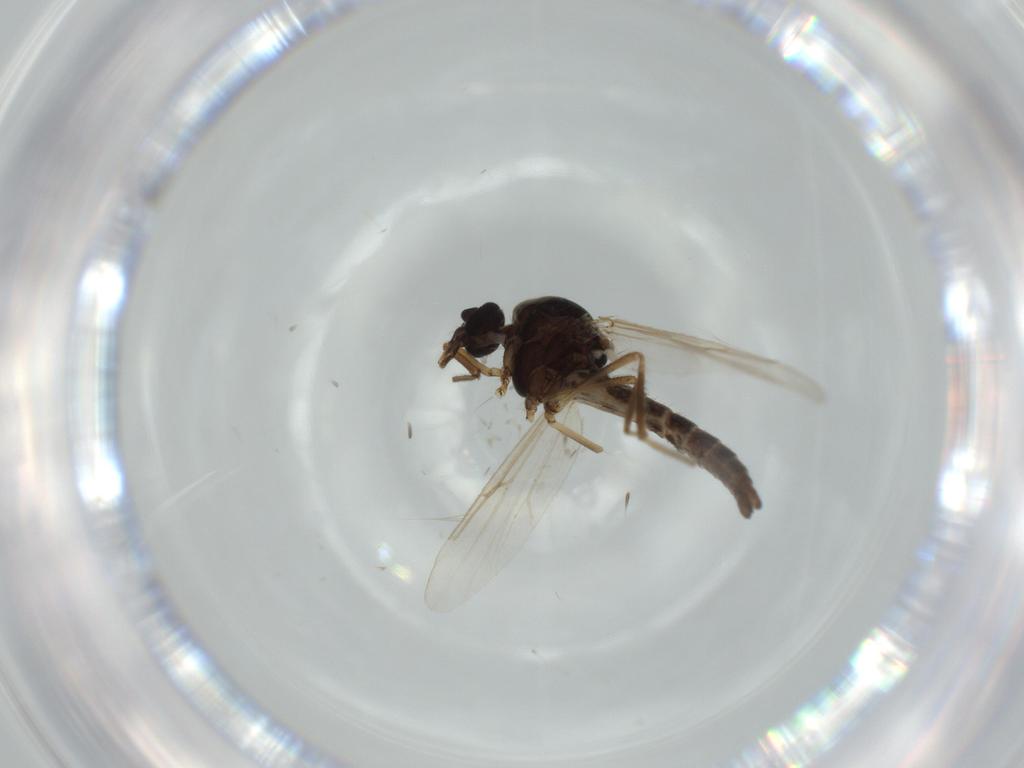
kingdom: Animalia
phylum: Arthropoda
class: Insecta
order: Diptera
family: Ceratopogonidae
